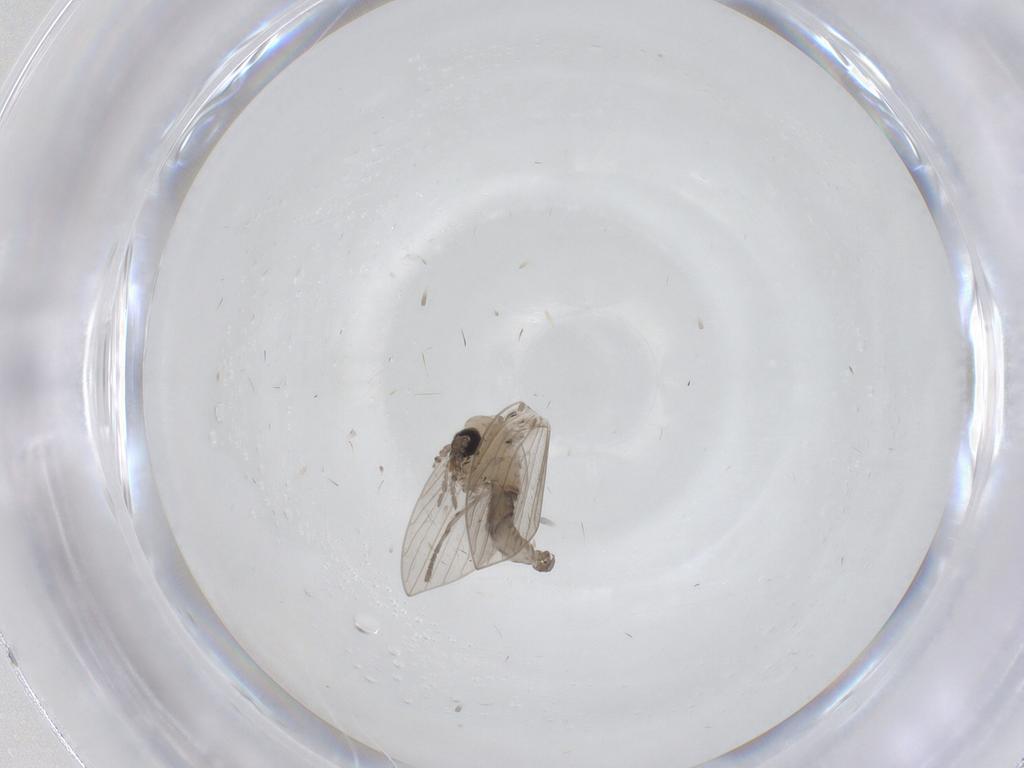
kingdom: Animalia
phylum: Arthropoda
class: Insecta
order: Diptera
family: Psychodidae
